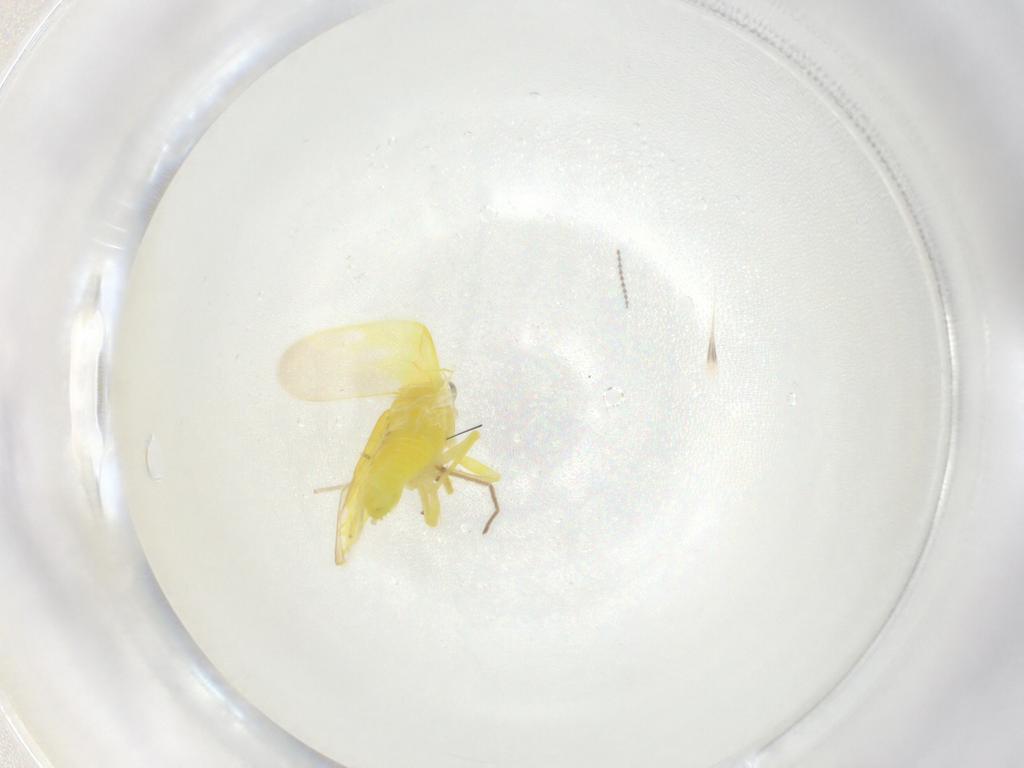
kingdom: Animalia
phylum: Arthropoda
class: Insecta
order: Hemiptera
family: Cicadellidae
